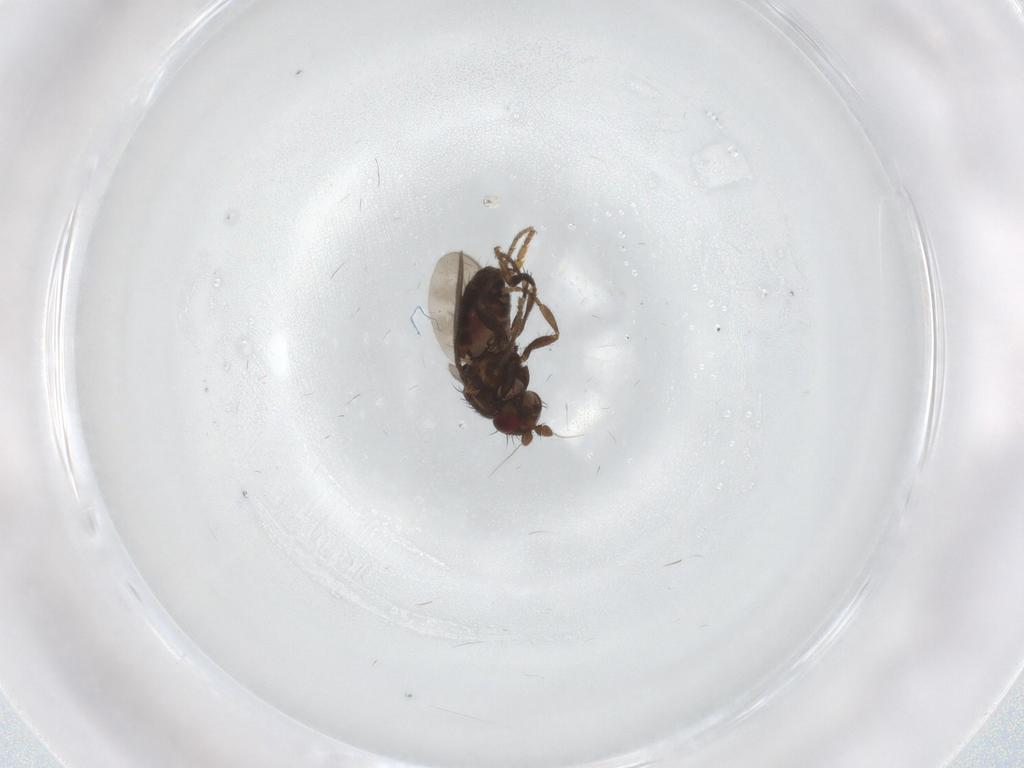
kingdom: Animalia
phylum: Arthropoda
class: Insecta
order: Diptera
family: Sphaeroceridae
